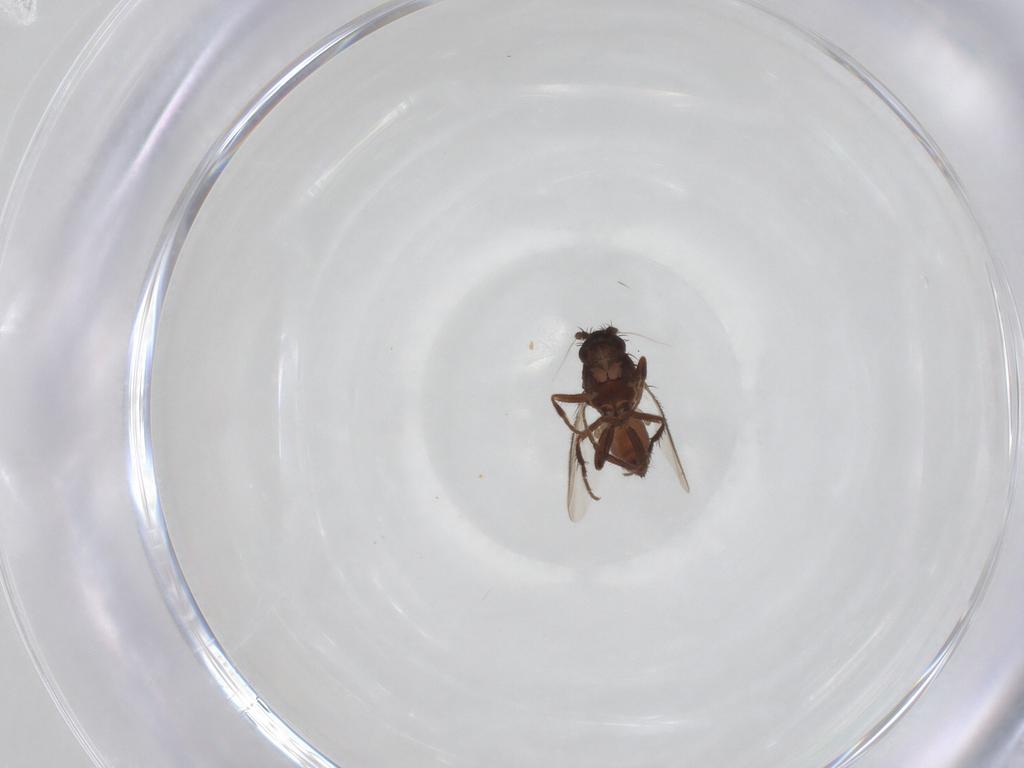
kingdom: Animalia
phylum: Arthropoda
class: Insecta
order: Diptera
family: Sphaeroceridae
